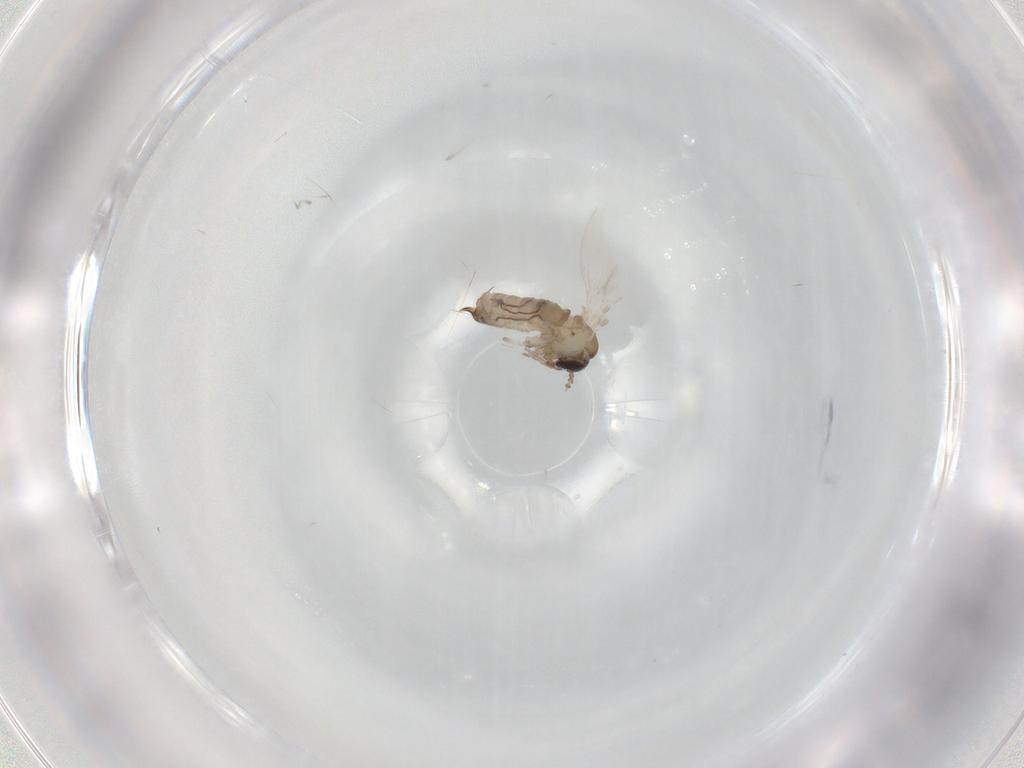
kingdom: Animalia
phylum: Arthropoda
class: Insecta
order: Diptera
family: Psychodidae
